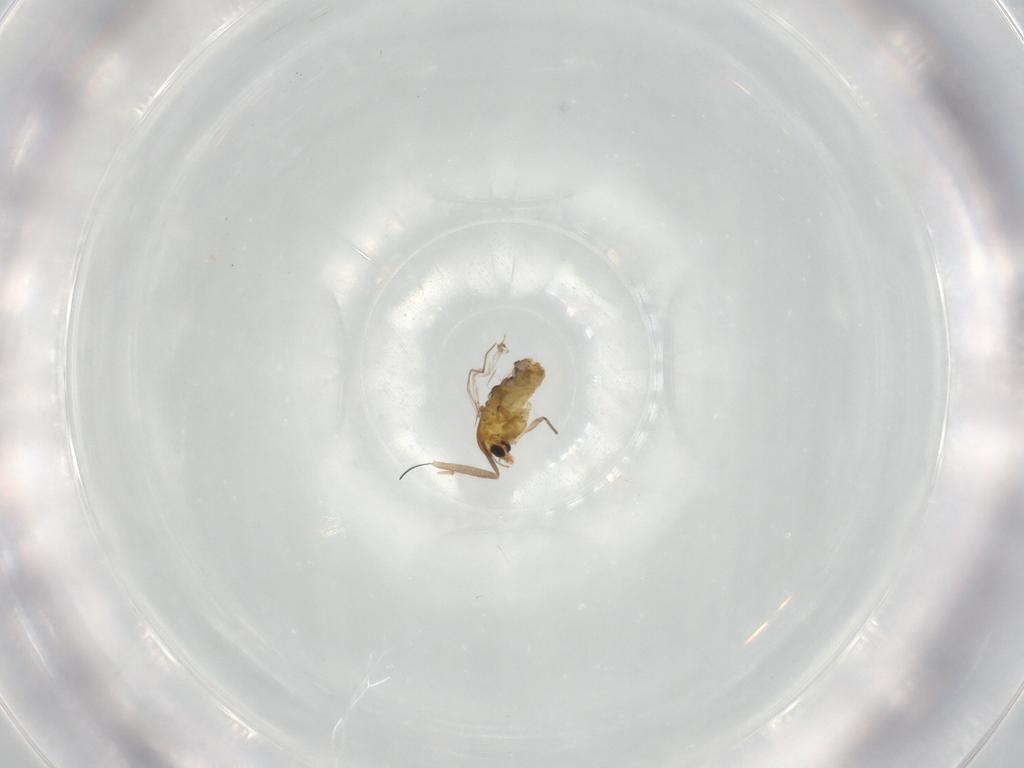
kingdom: Animalia
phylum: Arthropoda
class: Insecta
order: Diptera
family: Chironomidae
